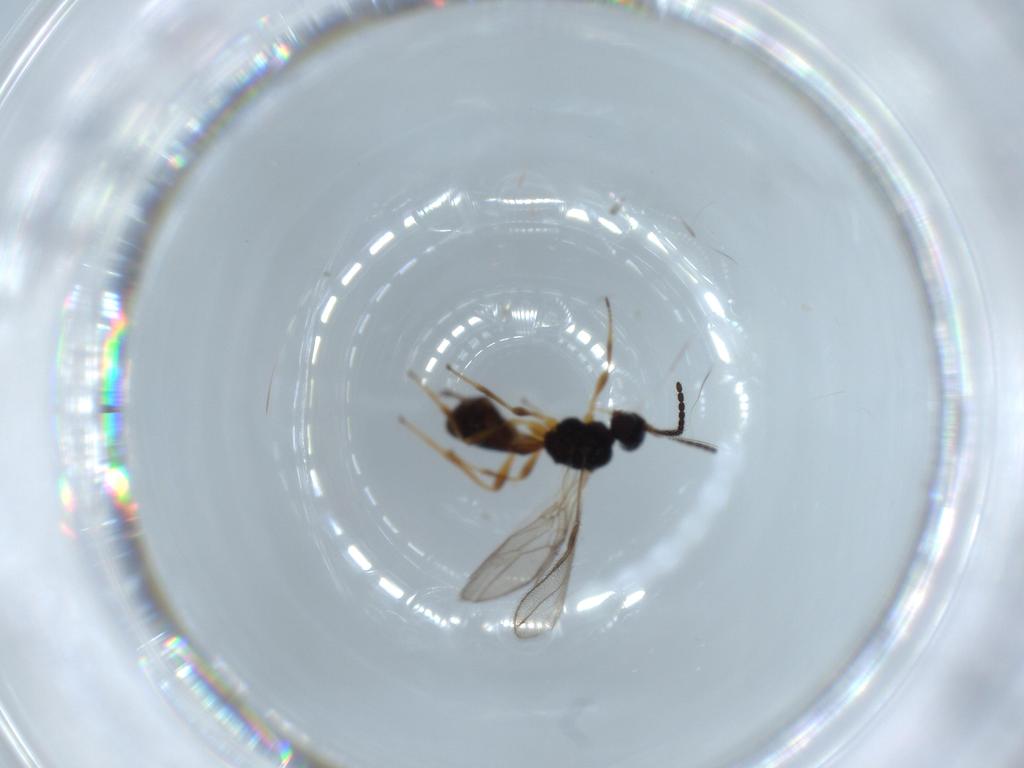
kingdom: Animalia
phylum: Arthropoda
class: Insecta
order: Hymenoptera
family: Braconidae
